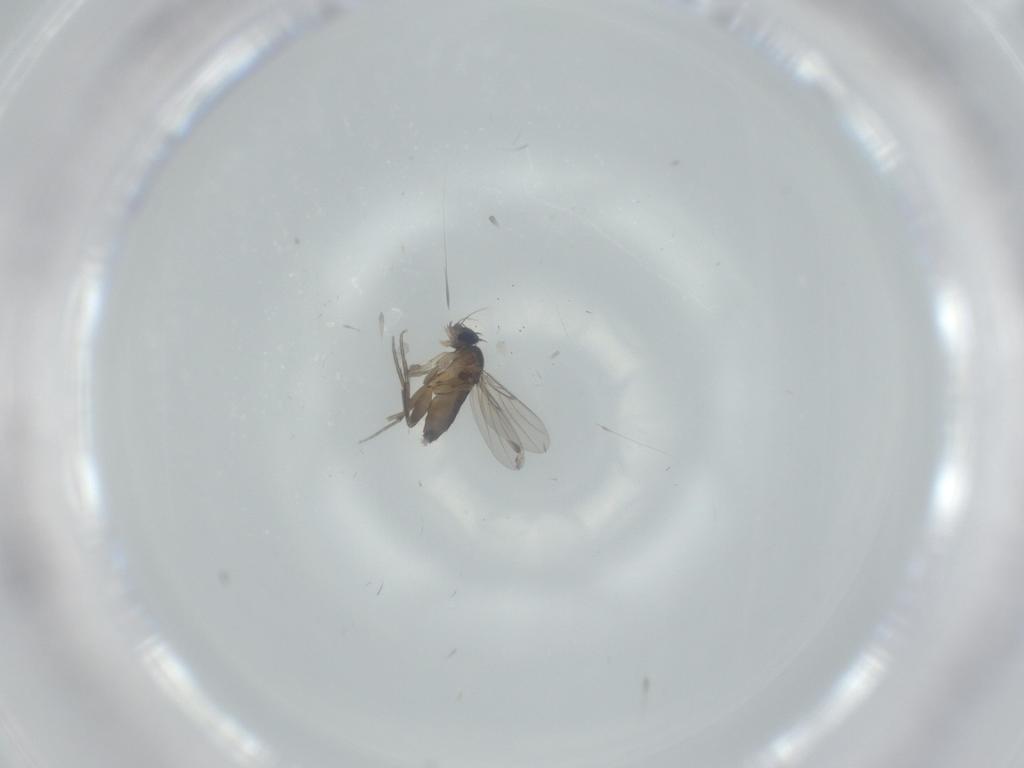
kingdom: Animalia
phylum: Arthropoda
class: Insecta
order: Diptera
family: Phoridae
